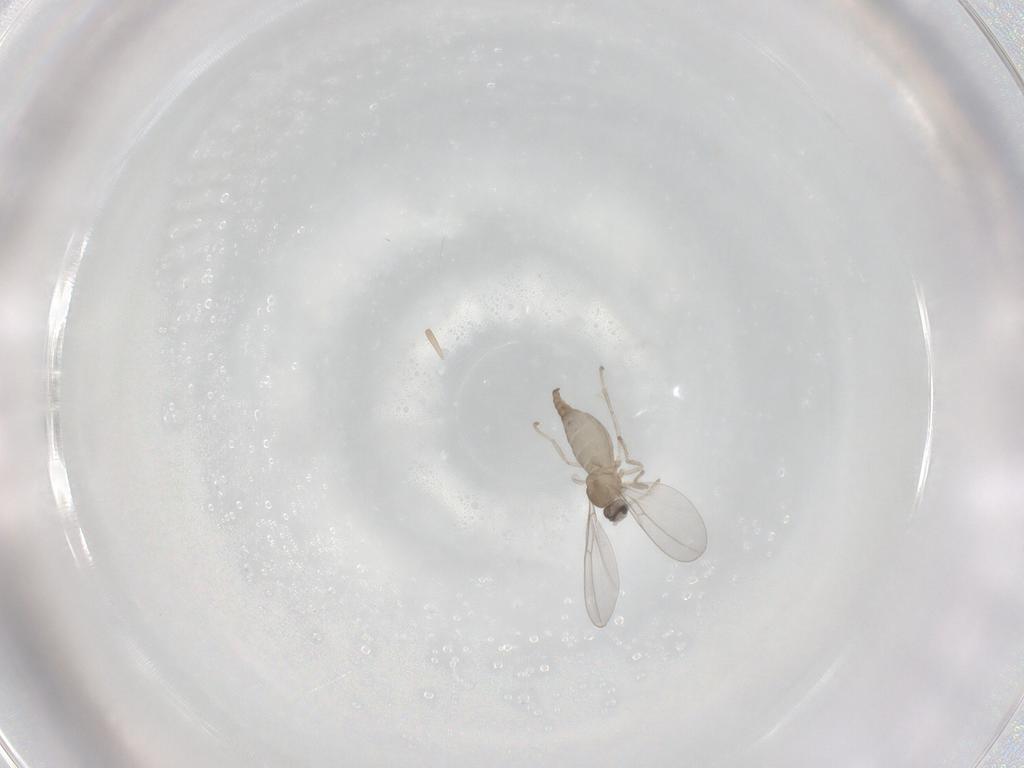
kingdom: Animalia
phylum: Arthropoda
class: Insecta
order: Diptera
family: Cecidomyiidae
